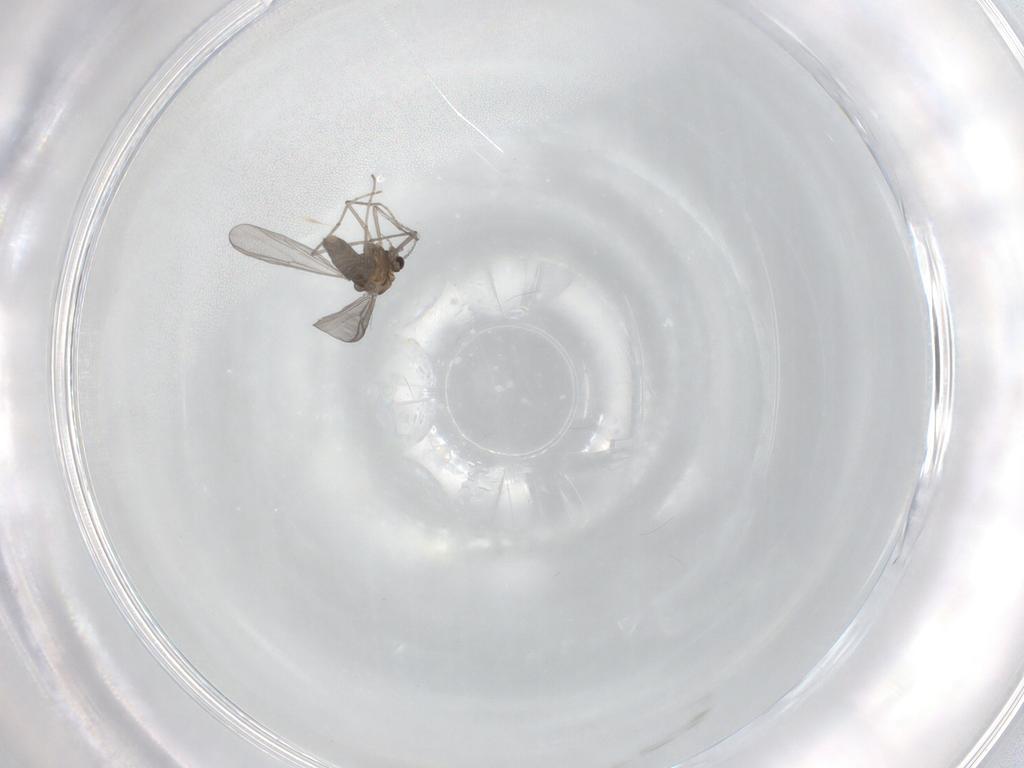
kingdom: Animalia
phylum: Arthropoda
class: Insecta
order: Diptera
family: Chironomidae
